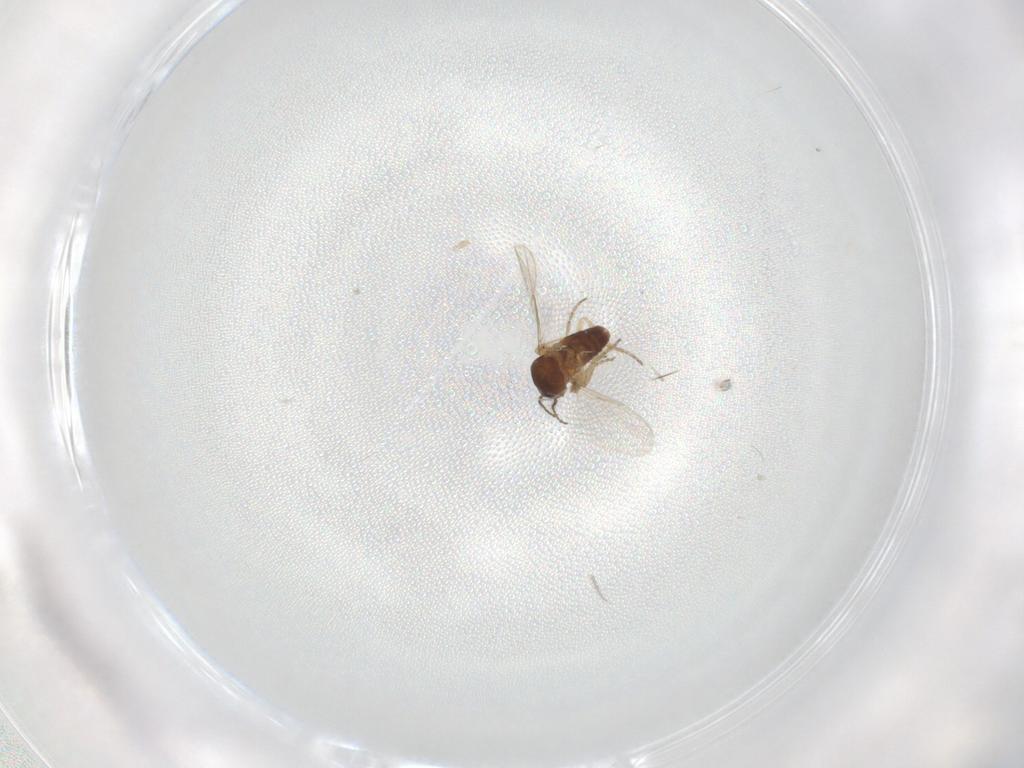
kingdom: Animalia
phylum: Arthropoda
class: Insecta
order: Diptera
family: Ceratopogonidae
